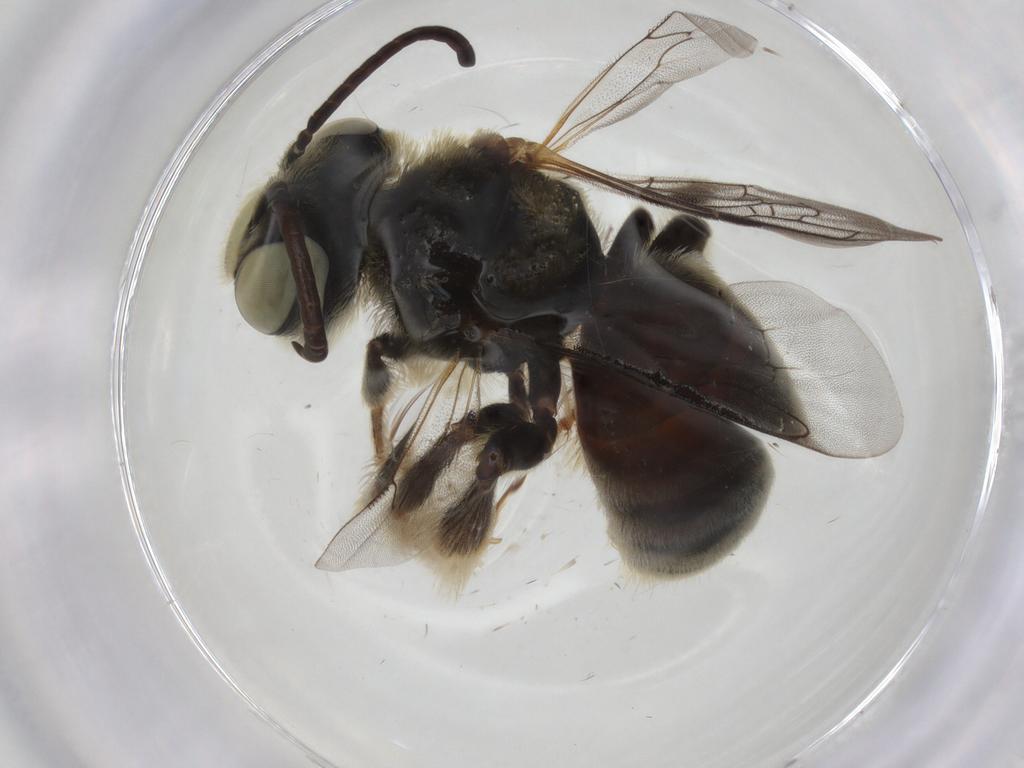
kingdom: Animalia
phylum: Arthropoda
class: Insecta
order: Hymenoptera
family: Apidae
